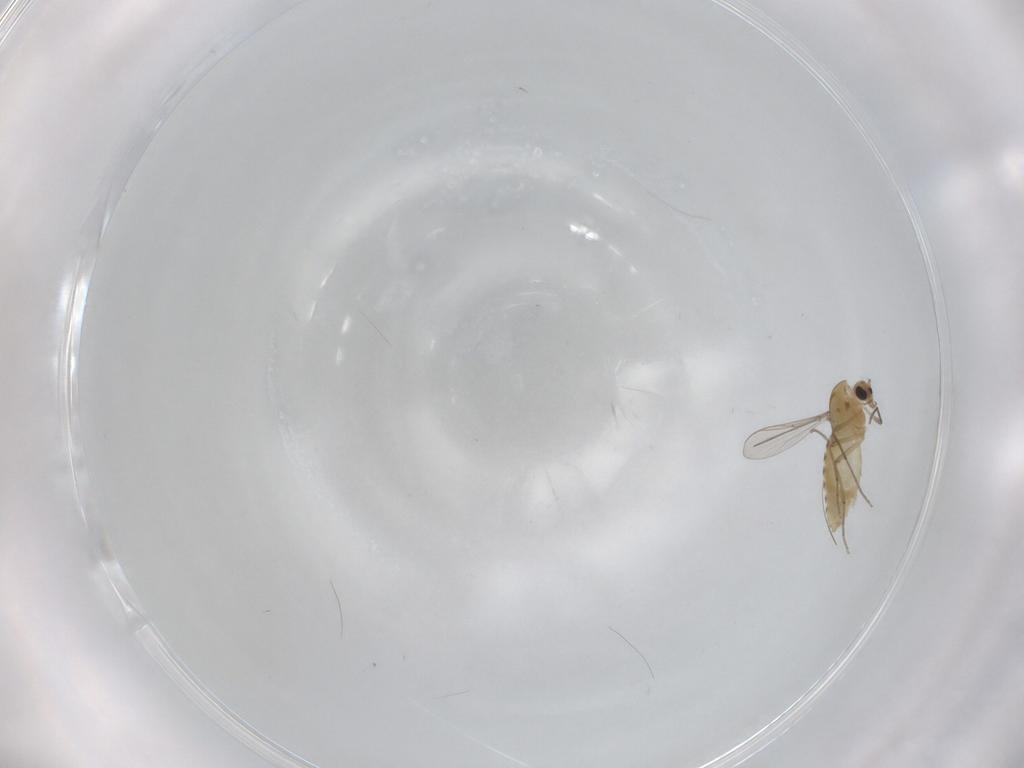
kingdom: Animalia
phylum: Arthropoda
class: Insecta
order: Diptera
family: Chironomidae
